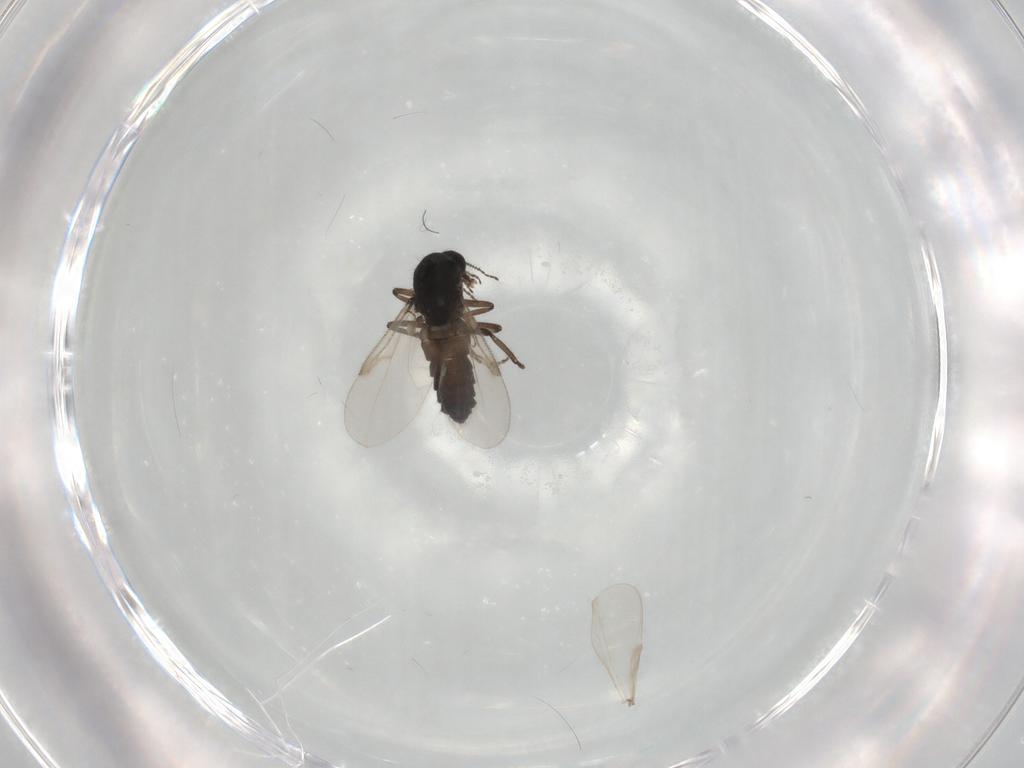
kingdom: Animalia
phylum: Arthropoda
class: Insecta
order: Diptera
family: Ceratopogonidae
